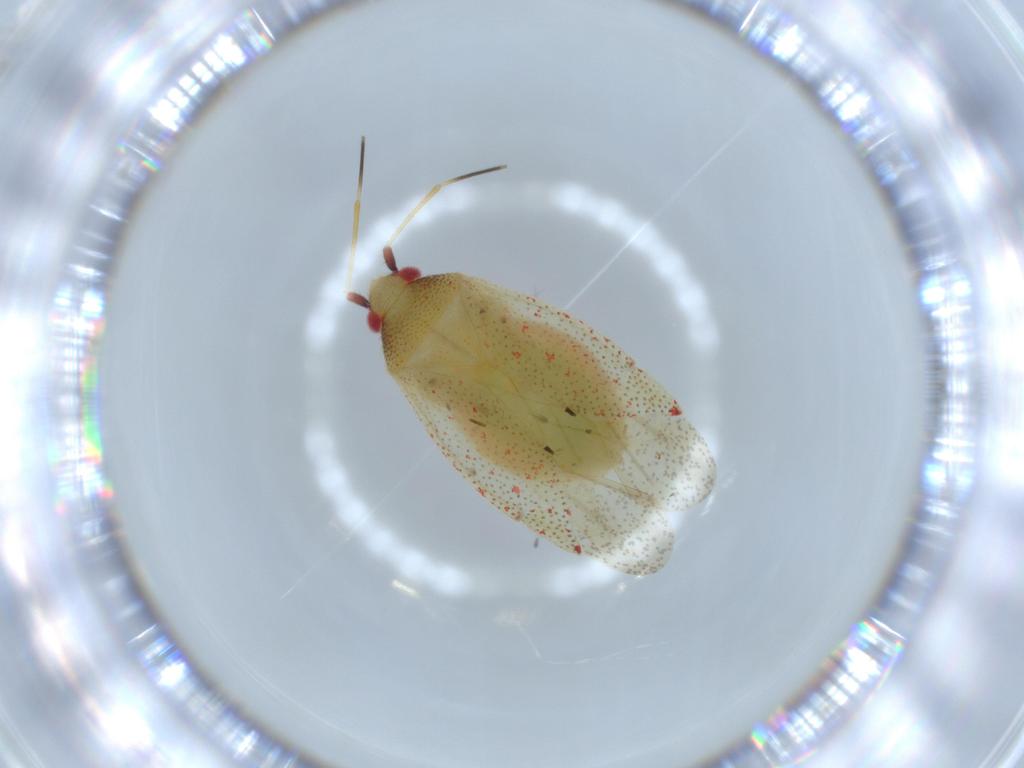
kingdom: Animalia
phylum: Arthropoda
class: Insecta
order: Hemiptera
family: Miridae
